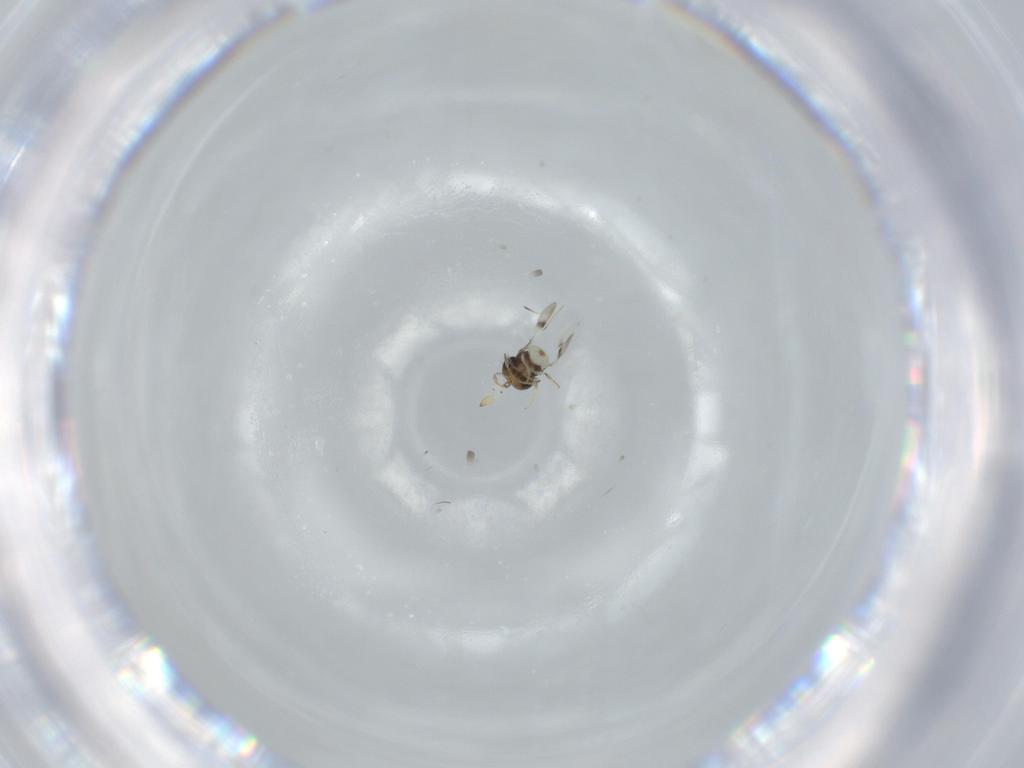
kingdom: Animalia
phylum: Arthropoda
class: Insecta
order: Hymenoptera
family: Scelionidae
